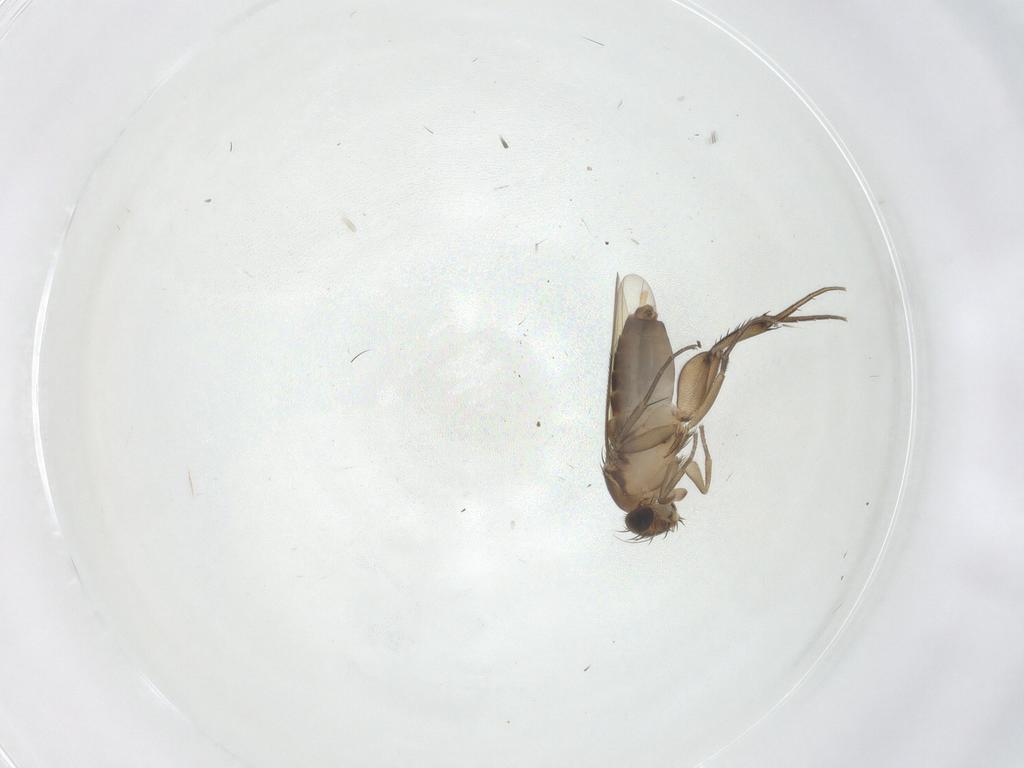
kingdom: Animalia
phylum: Arthropoda
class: Insecta
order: Diptera
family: Phoridae
